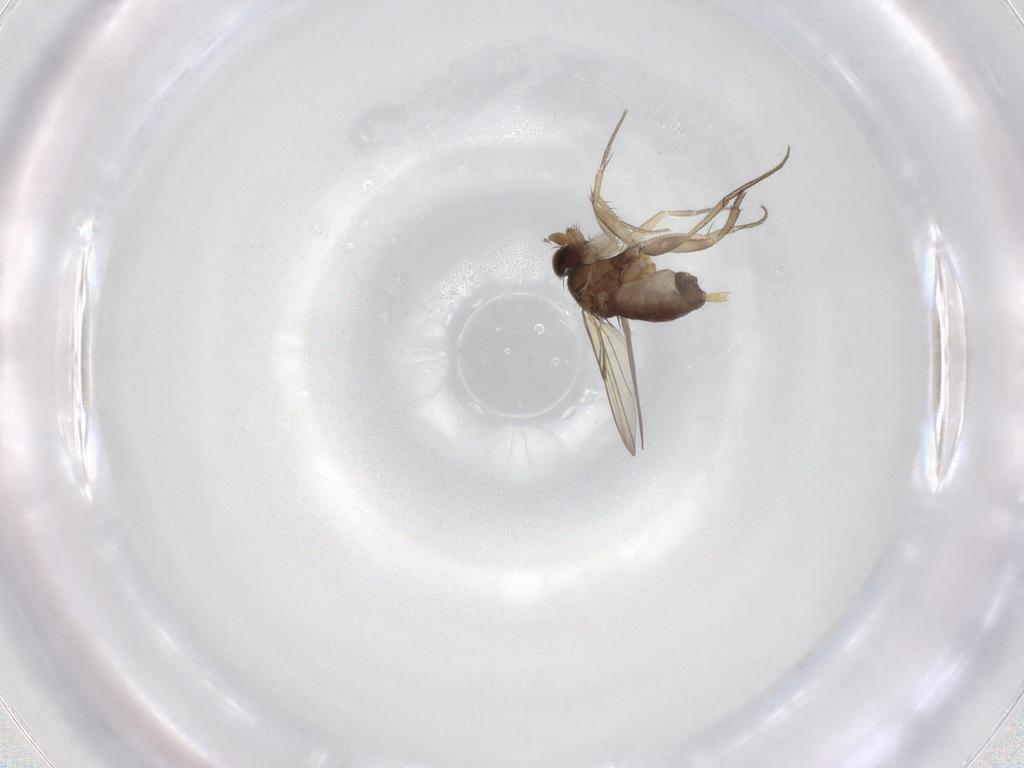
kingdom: Animalia
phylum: Arthropoda
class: Insecta
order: Diptera
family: Phoridae
